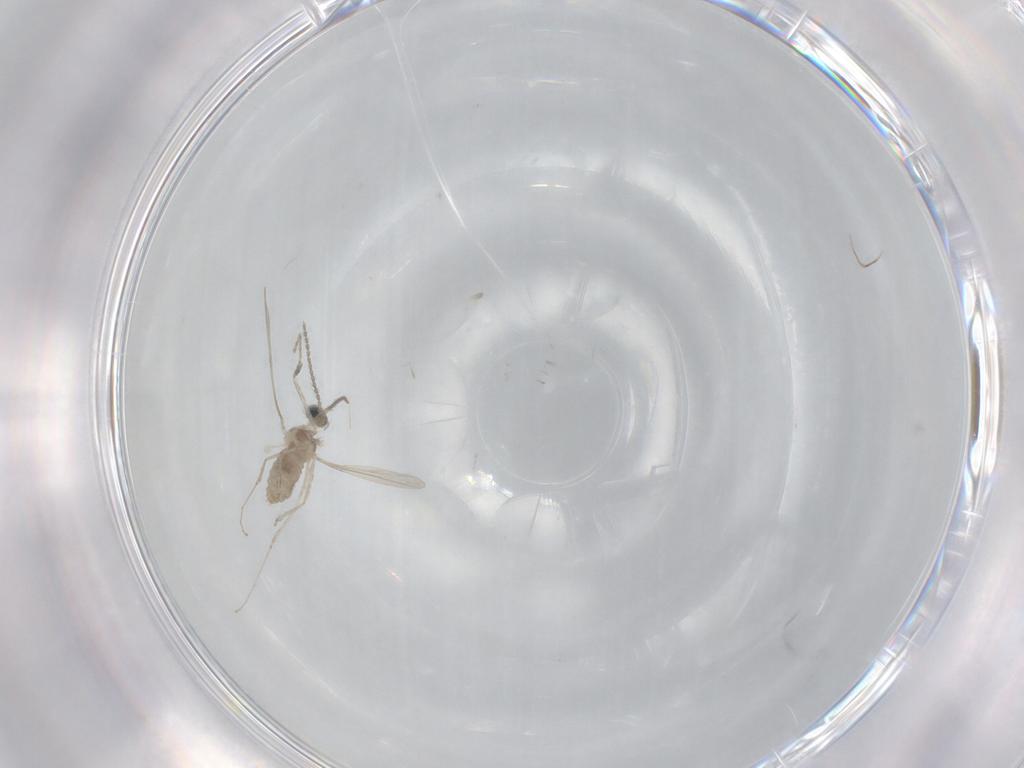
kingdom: Animalia
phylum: Arthropoda
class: Insecta
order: Diptera
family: Cecidomyiidae
